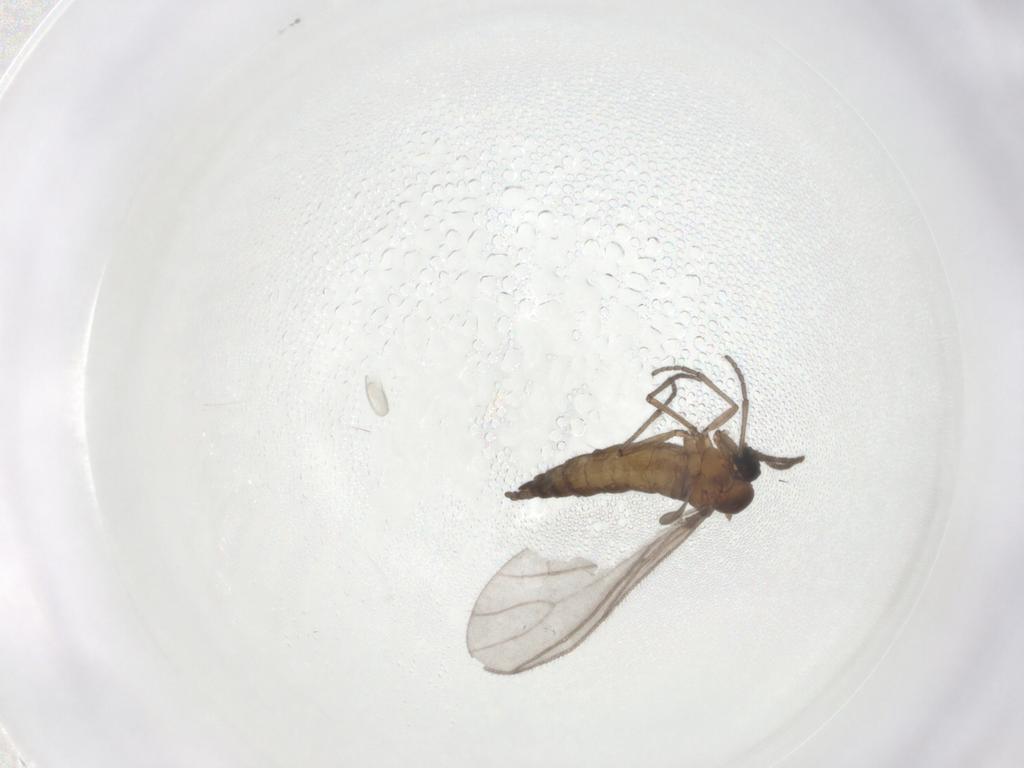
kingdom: Animalia
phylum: Arthropoda
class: Insecta
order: Diptera
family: Sciaridae
